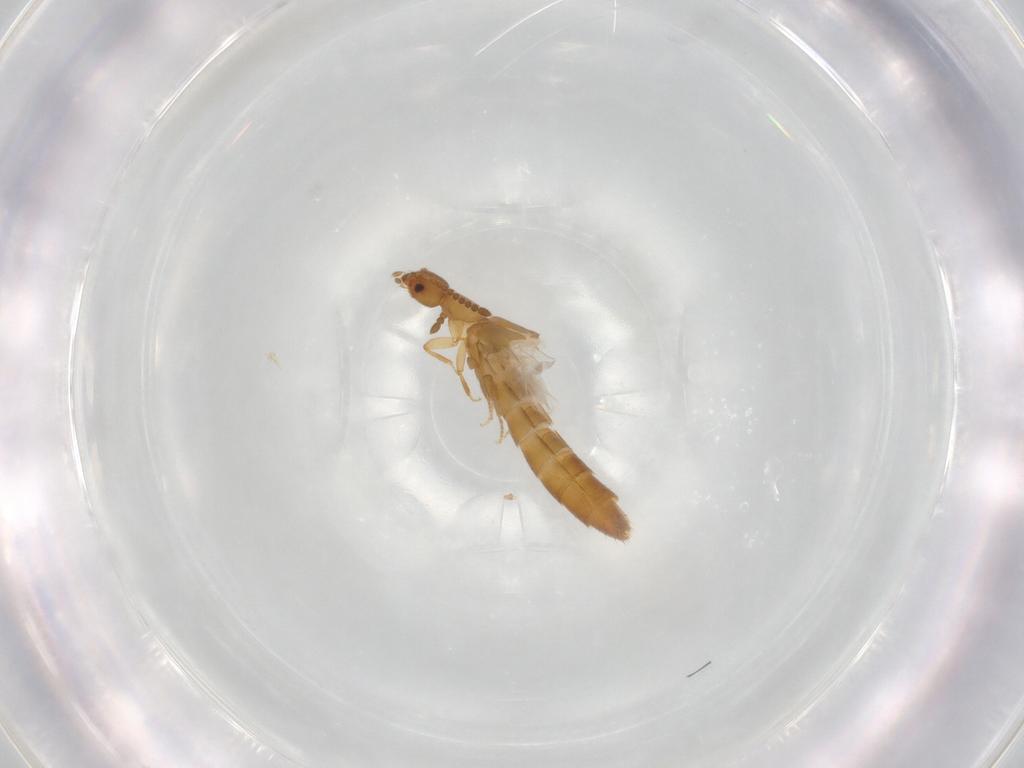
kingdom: Animalia
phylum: Arthropoda
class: Insecta
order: Coleoptera
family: Staphylinidae
